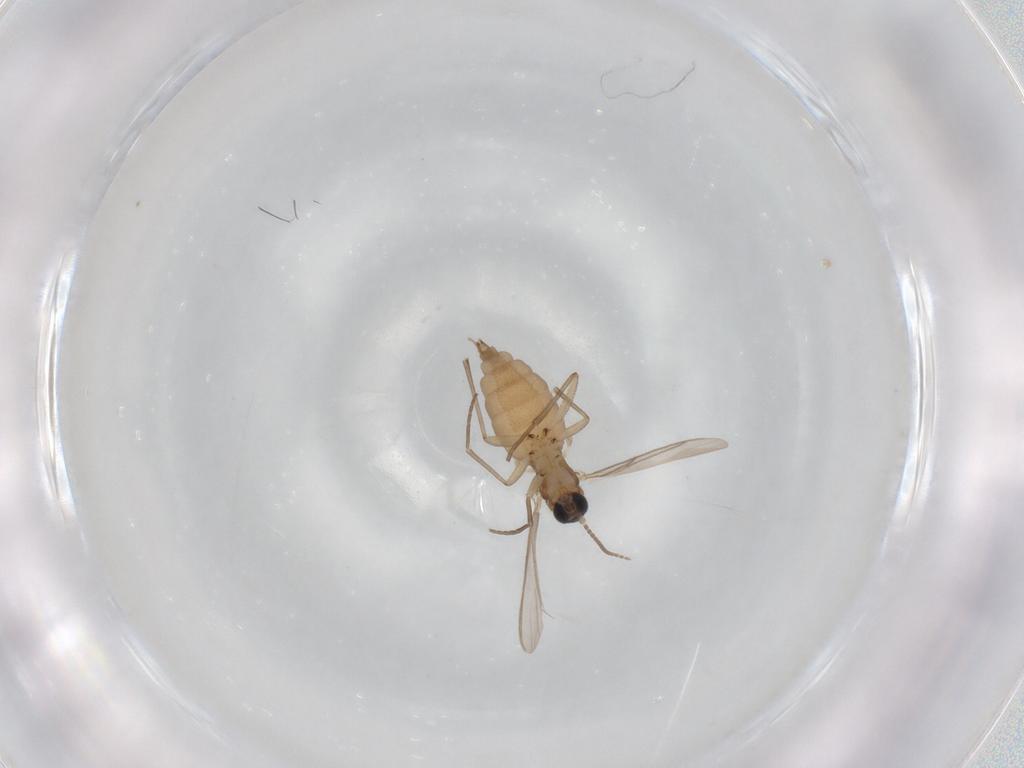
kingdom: Animalia
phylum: Arthropoda
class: Insecta
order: Diptera
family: Sciaridae
